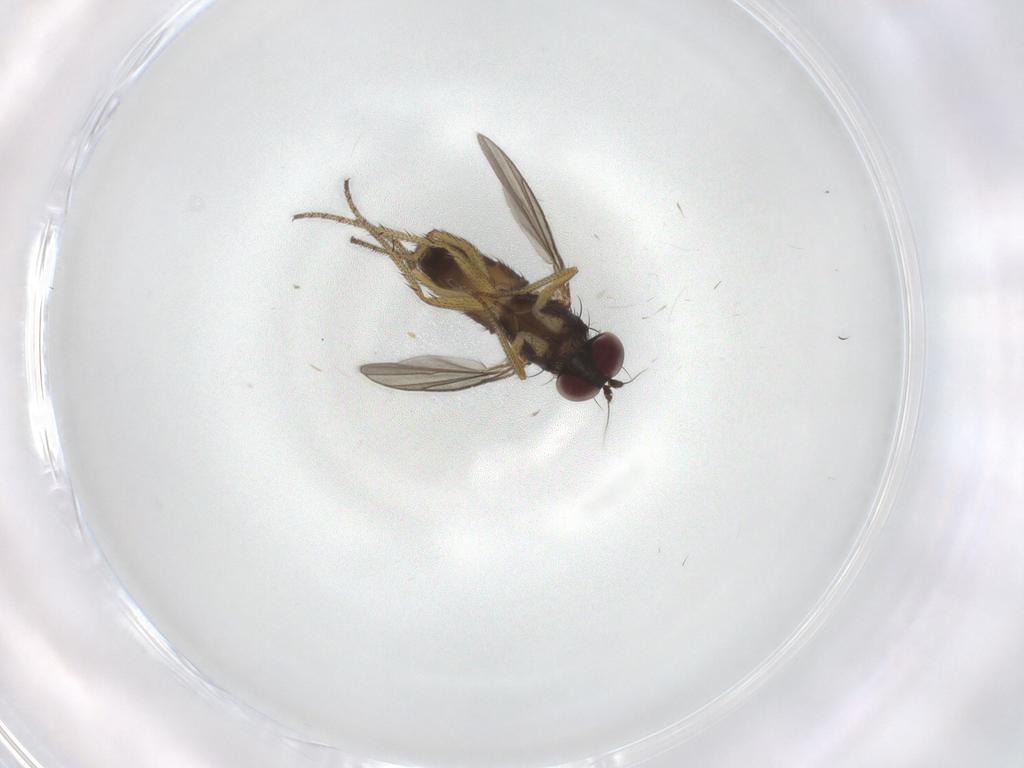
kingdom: Animalia
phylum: Arthropoda
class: Insecta
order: Diptera
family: Dolichopodidae
